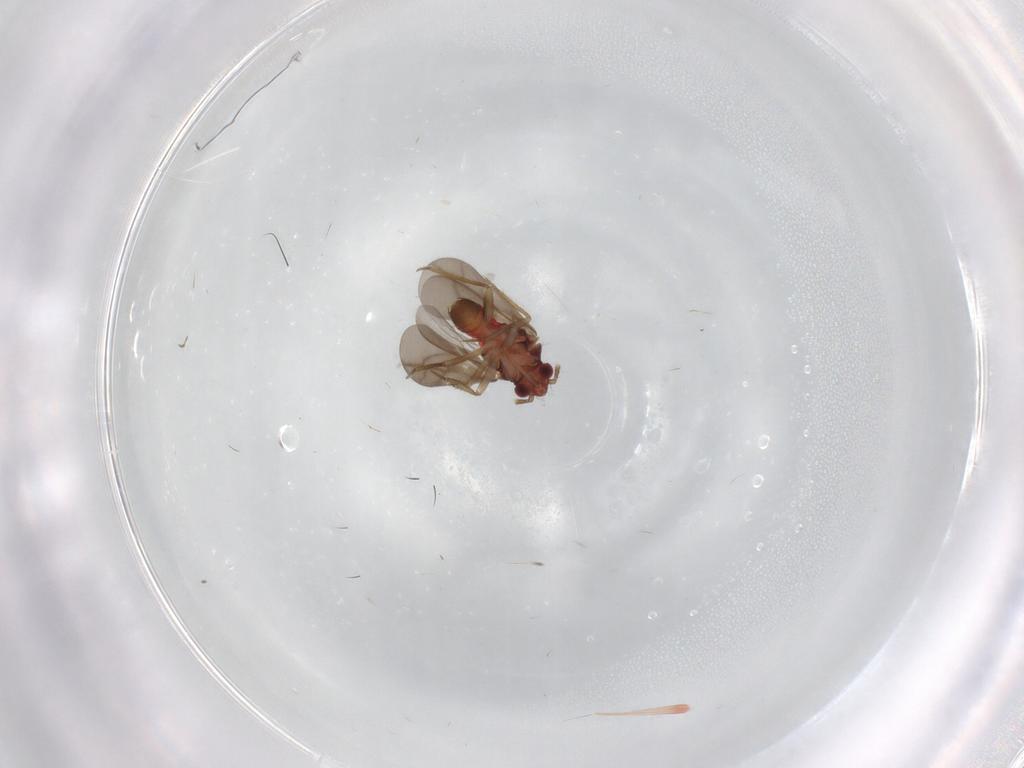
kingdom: Animalia
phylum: Arthropoda
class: Insecta
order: Hemiptera
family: Ceratocombidae
